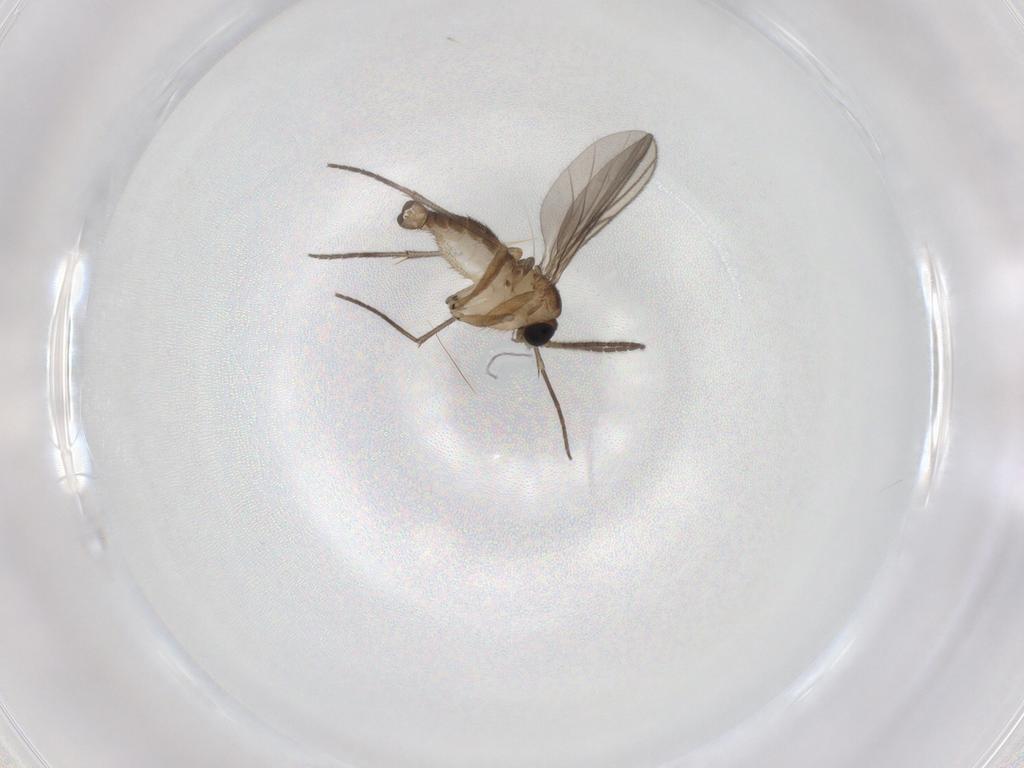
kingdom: Animalia
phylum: Arthropoda
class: Insecta
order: Diptera
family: Sciaridae
